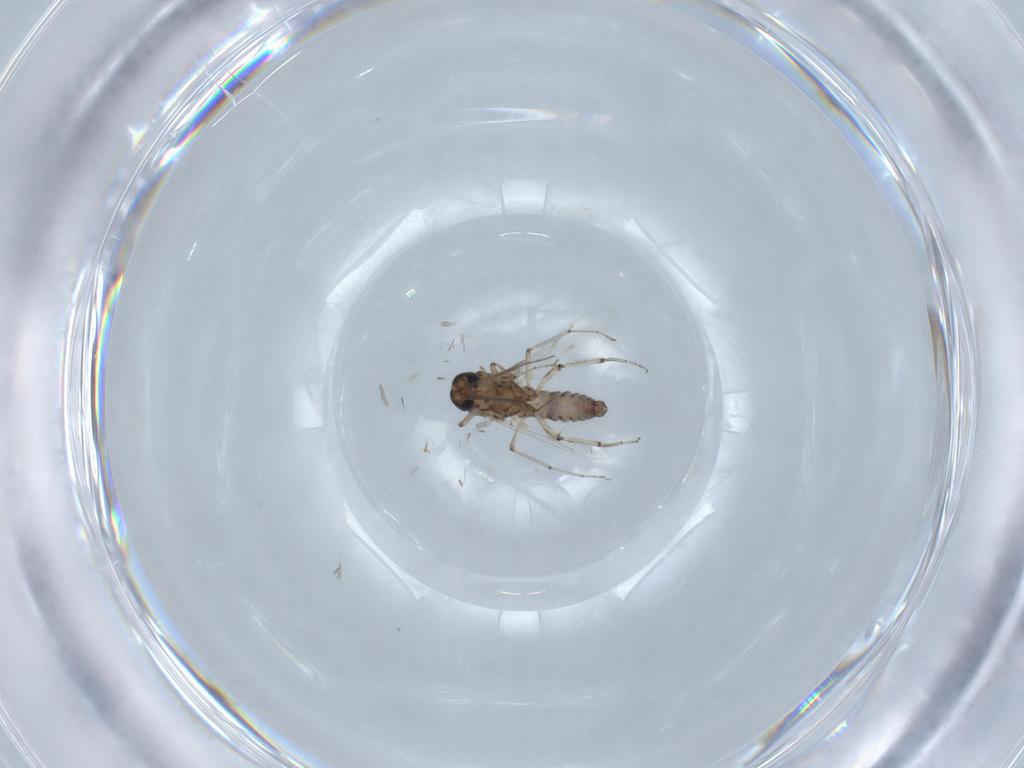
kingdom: Animalia
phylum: Arthropoda
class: Insecta
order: Diptera
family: Ceratopogonidae
